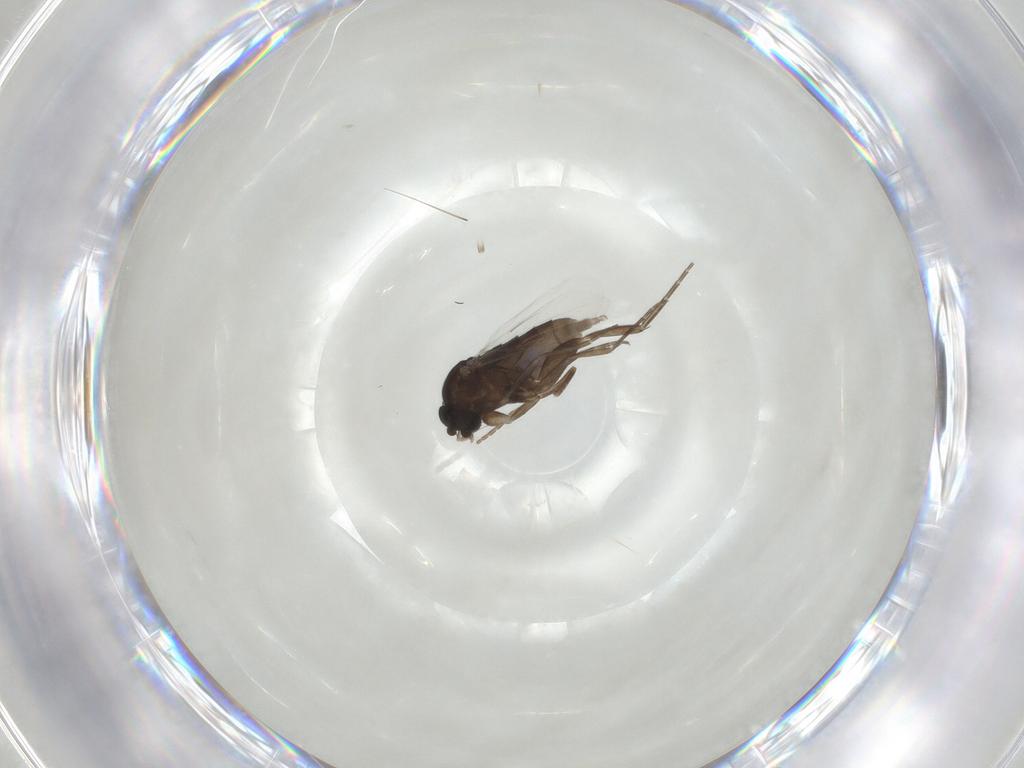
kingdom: Animalia
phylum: Arthropoda
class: Insecta
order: Diptera
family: Phoridae
